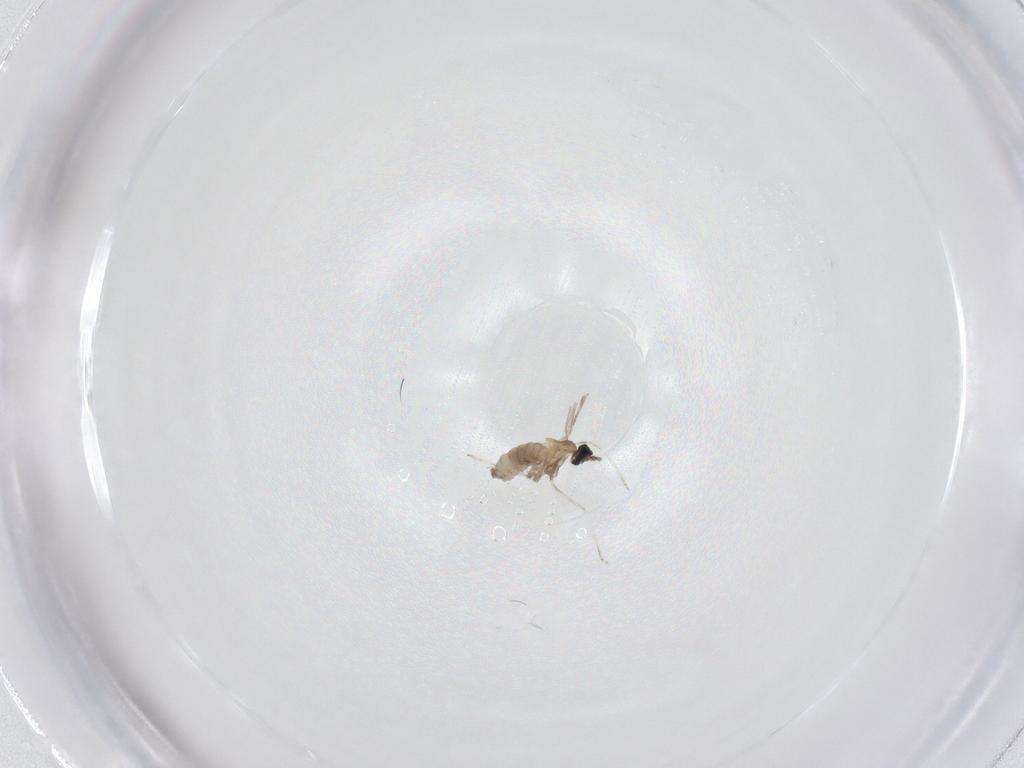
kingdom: Animalia
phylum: Arthropoda
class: Insecta
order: Diptera
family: Cecidomyiidae
